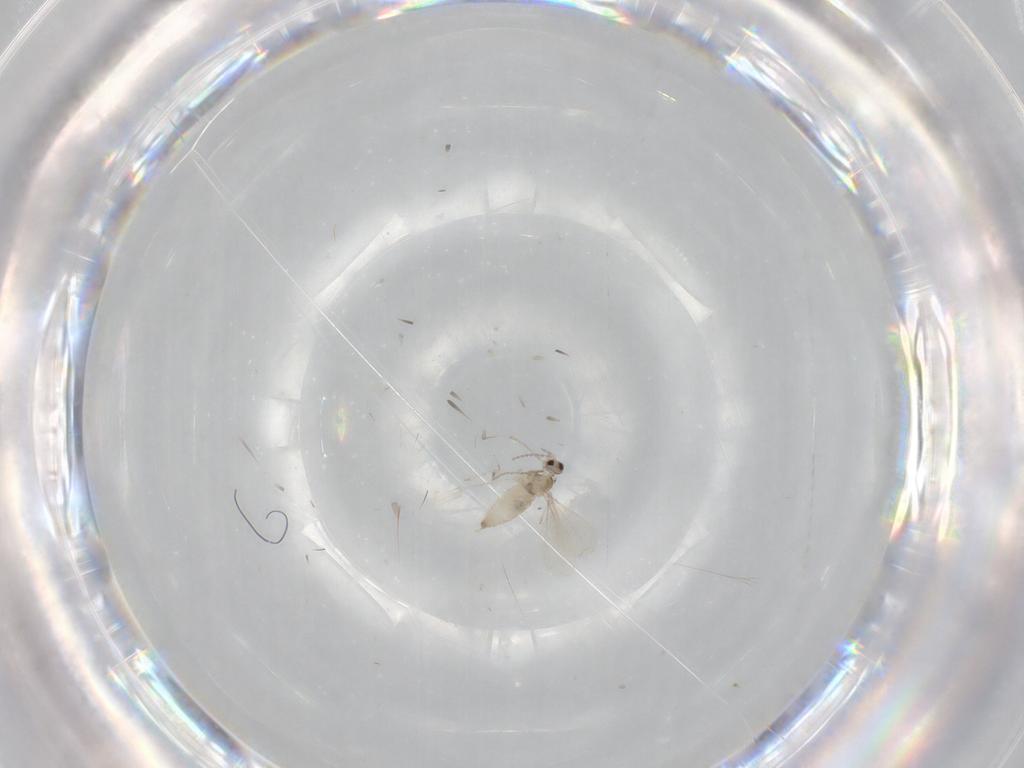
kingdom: Animalia
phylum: Arthropoda
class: Insecta
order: Diptera
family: Cecidomyiidae
